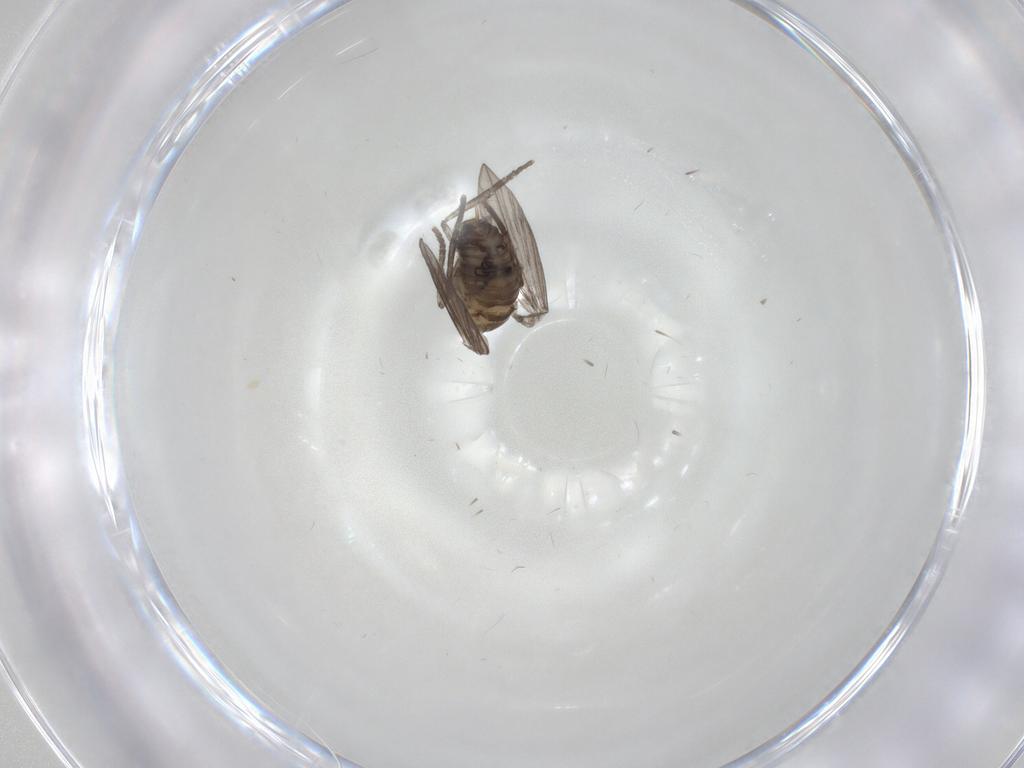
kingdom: Animalia
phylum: Arthropoda
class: Insecta
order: Diptera
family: Psychodidae
